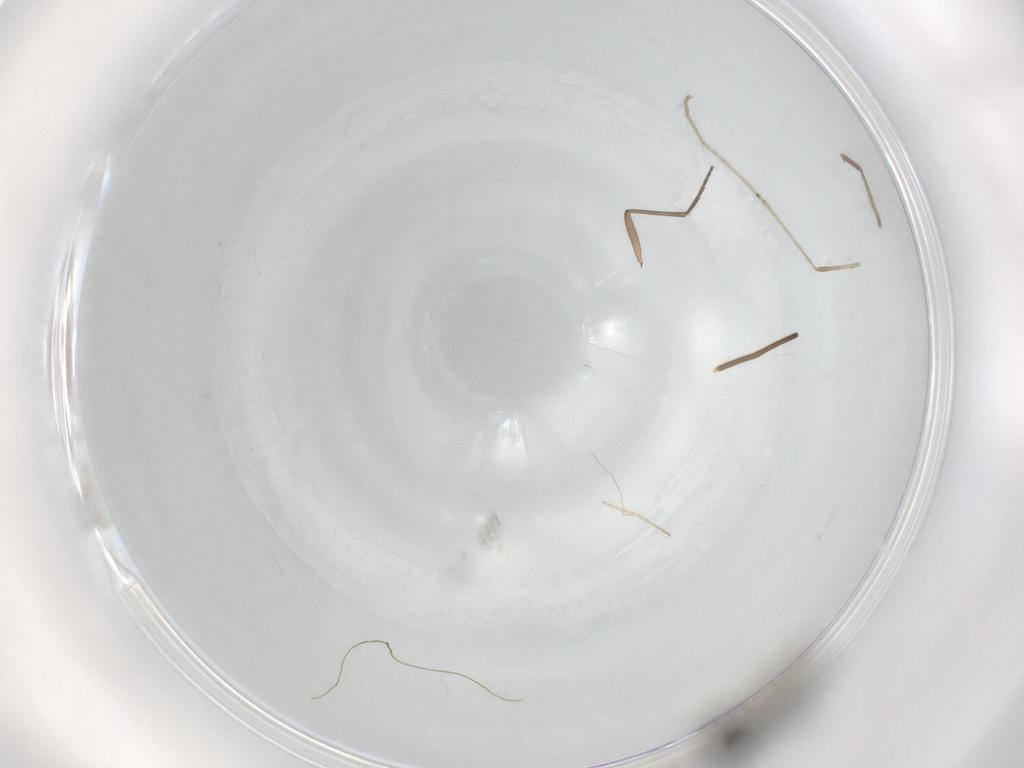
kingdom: Animalia
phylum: Arthropoda
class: Insecta
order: Diptera
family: Chironomidae
